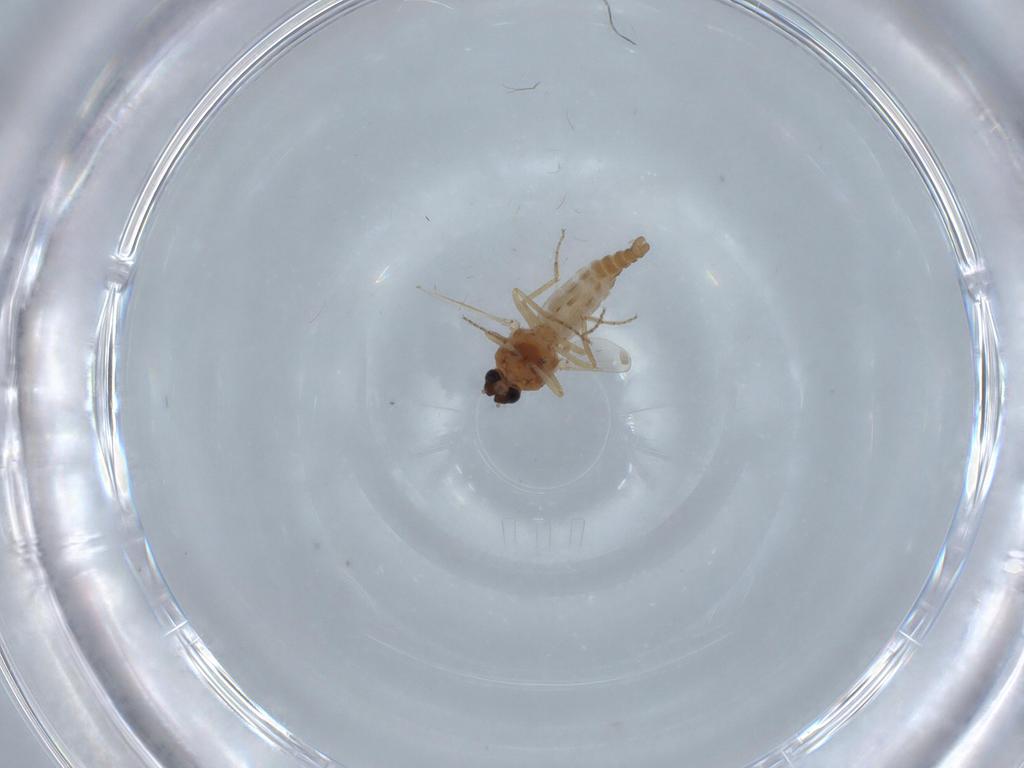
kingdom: Animalia
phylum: Arthropoda
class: Insecta
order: Diptera
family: Ceratopogonidae
